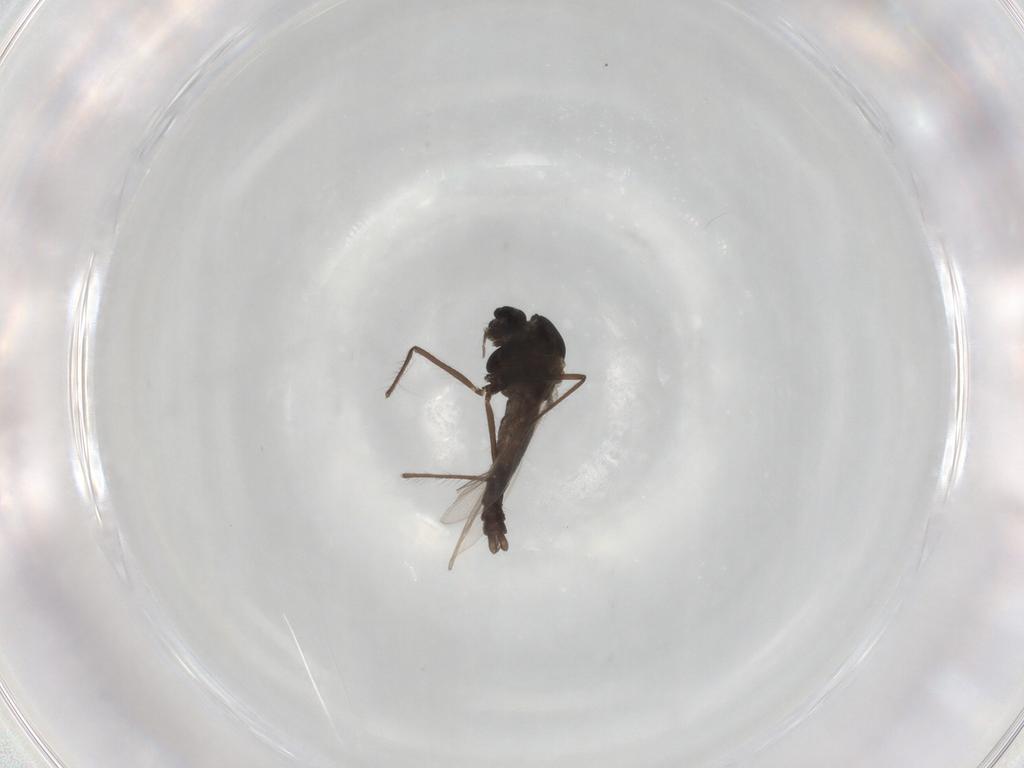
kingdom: Animalia
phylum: Arthropoda
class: Insecta
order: Diptera
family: Chironomidae
